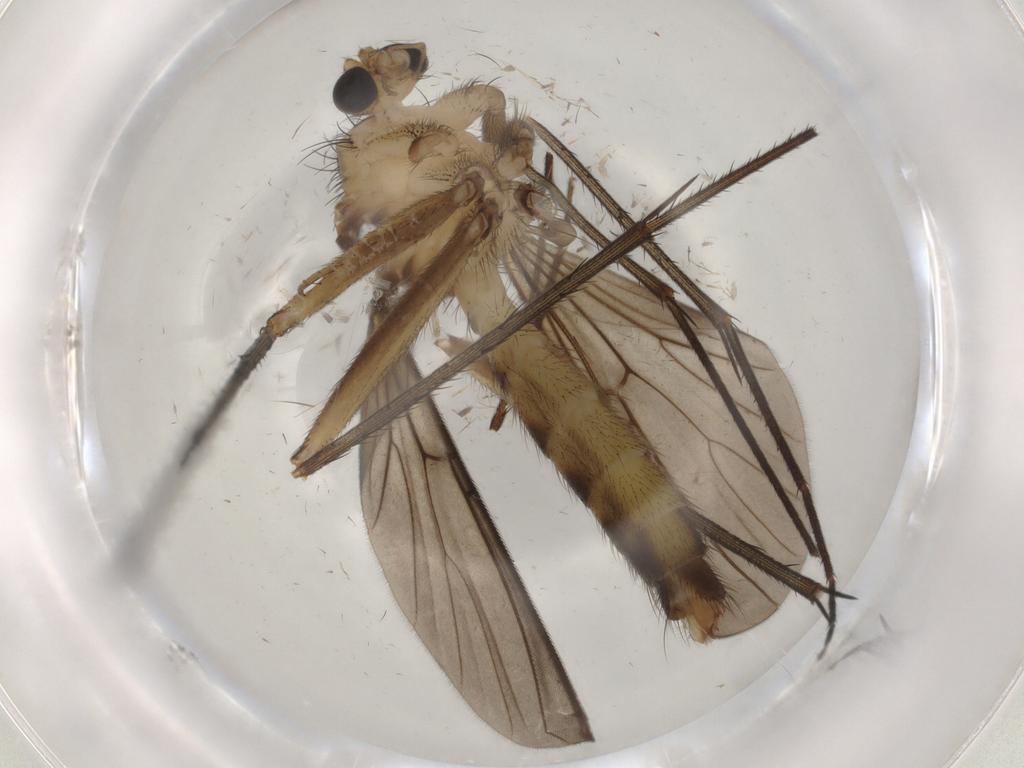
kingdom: Animalia
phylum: Arthropoda
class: Insecta
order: Diptera
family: Chironomidae
